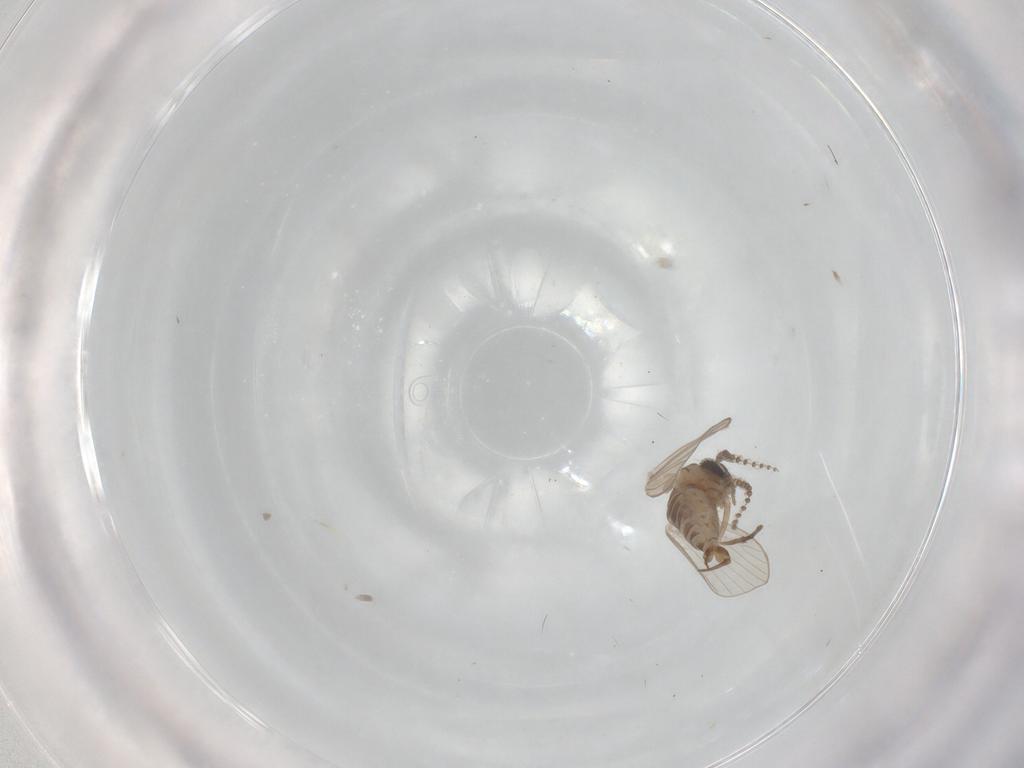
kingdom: Animalia
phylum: Arthropoda
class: Insecta
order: Diptera
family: Psychodidae
